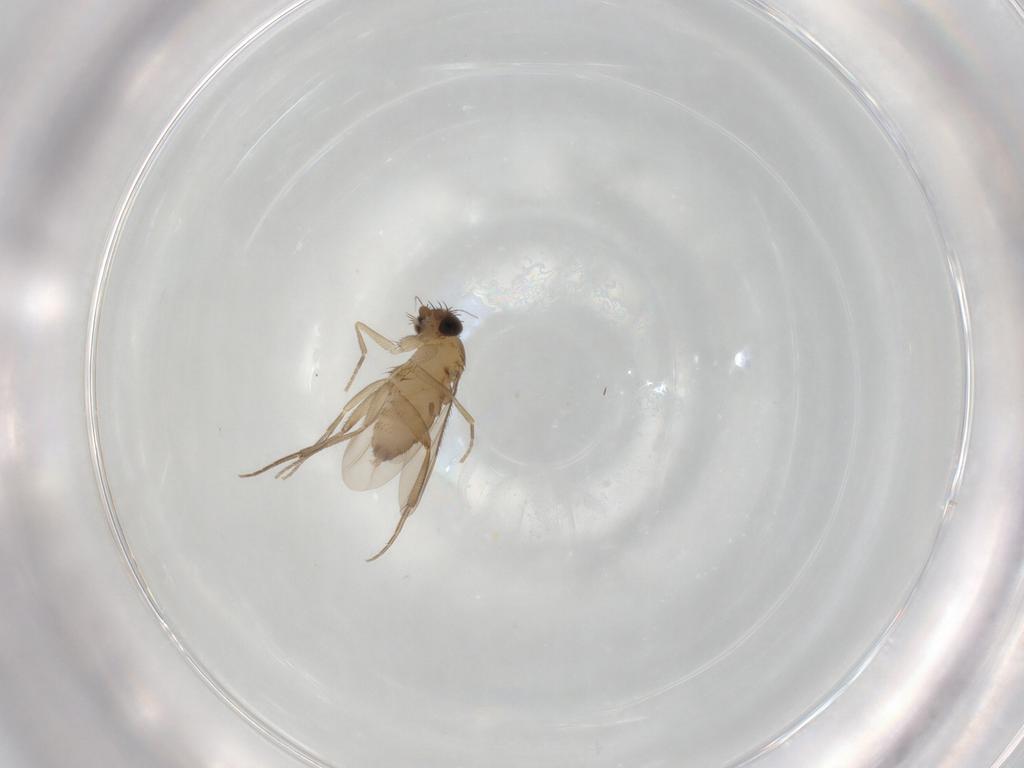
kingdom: Animalia
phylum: Arthropoda
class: Insecta
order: Diptera
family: Phoridae
